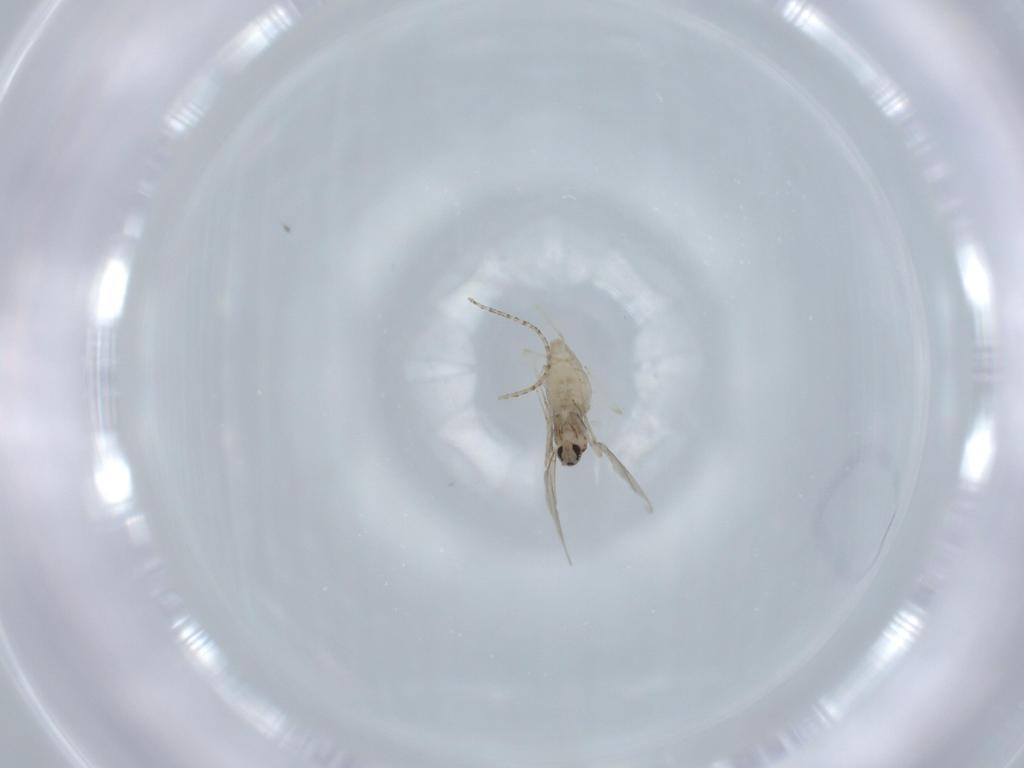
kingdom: Animalia
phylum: Arthropoda
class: Insecta
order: Diptera
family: Cecidomyiidae
